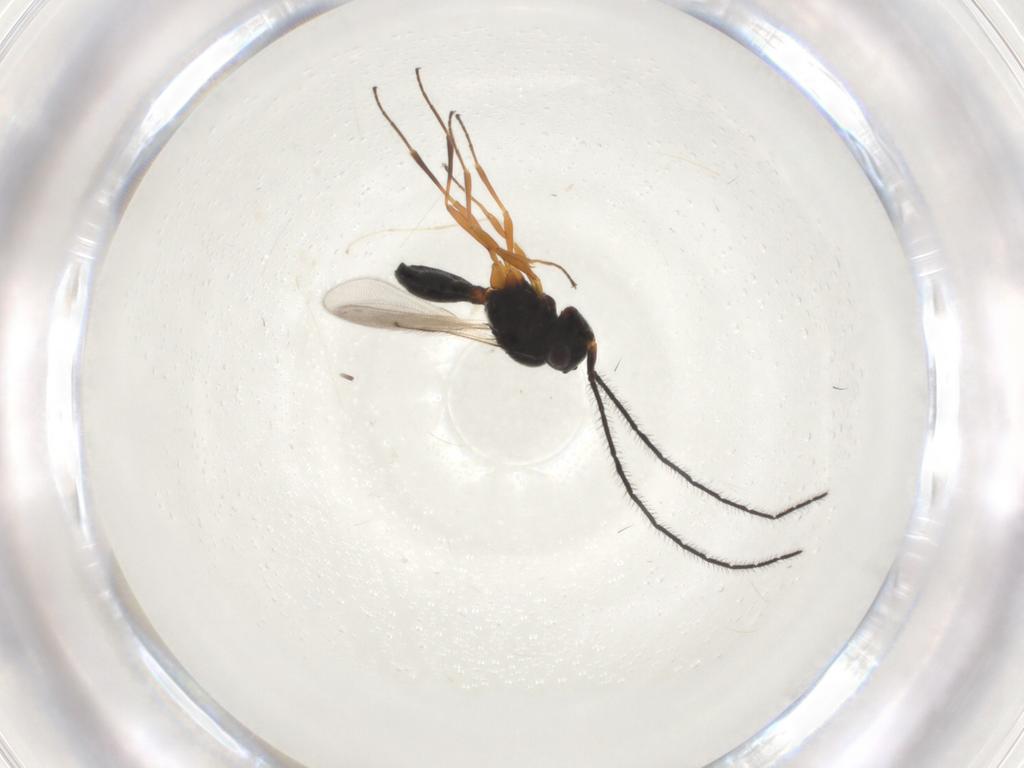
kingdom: Animalia
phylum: Arthropoda
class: Insecta
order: Hymenoptera
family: Scelionidae
